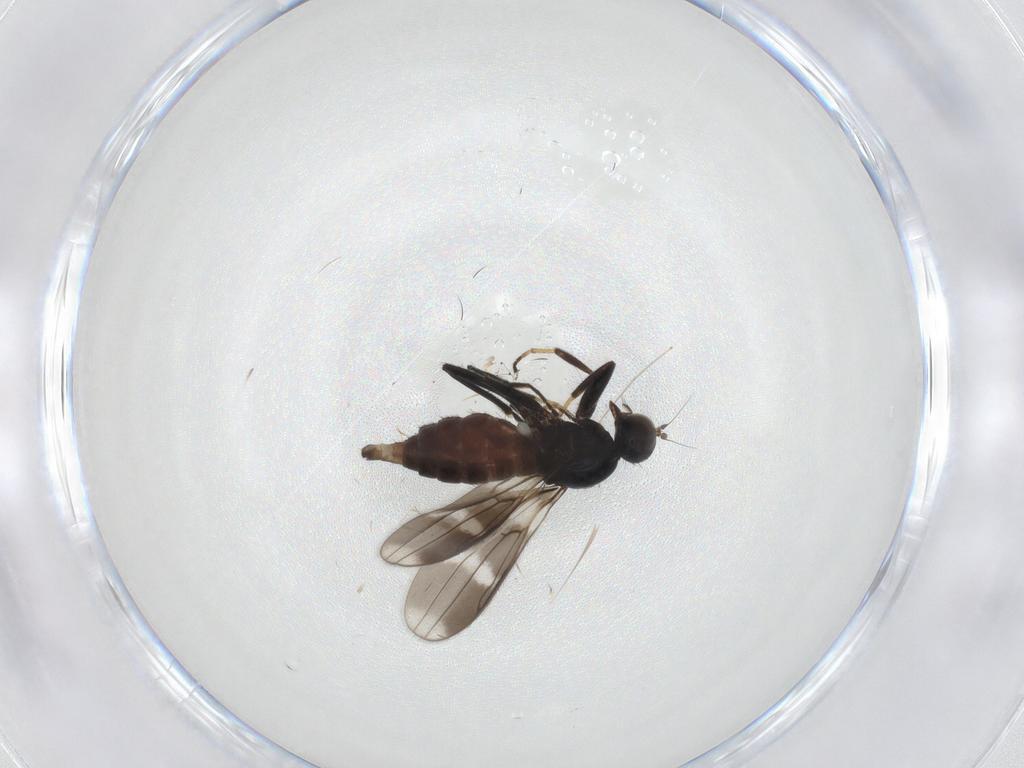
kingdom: Animalia
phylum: Arthropoda
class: Insecta
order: Diptera
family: Hybotidae
